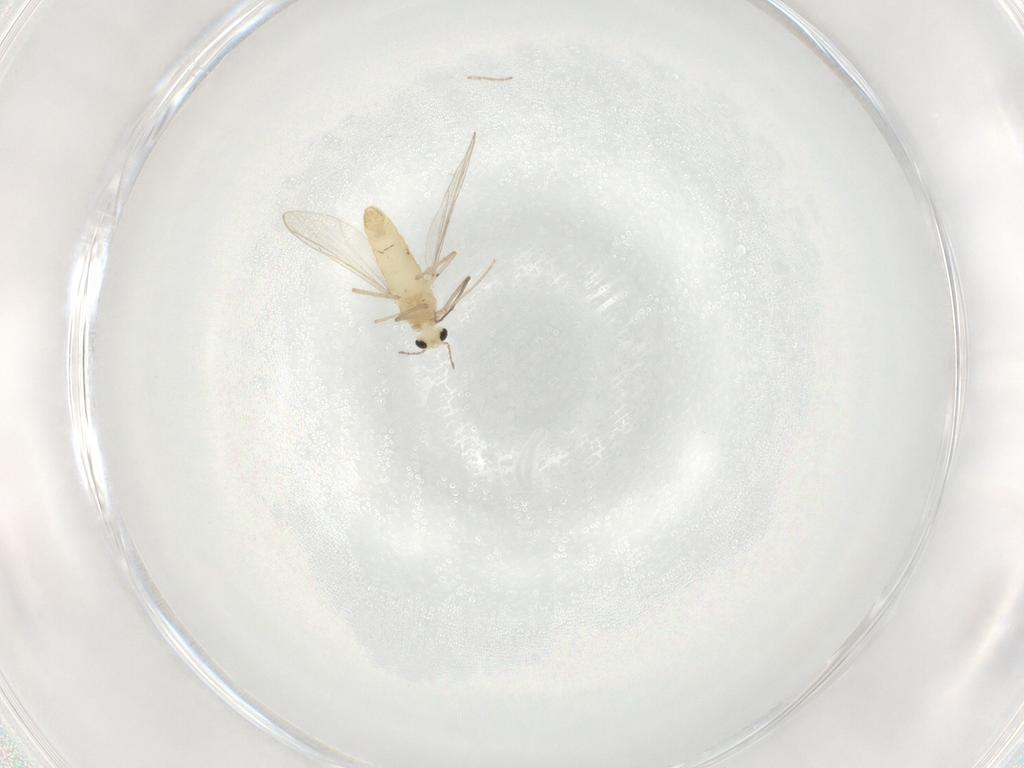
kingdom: Animalia
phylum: Arthropoda
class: Insecta
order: Diptera
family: Chironomidae
